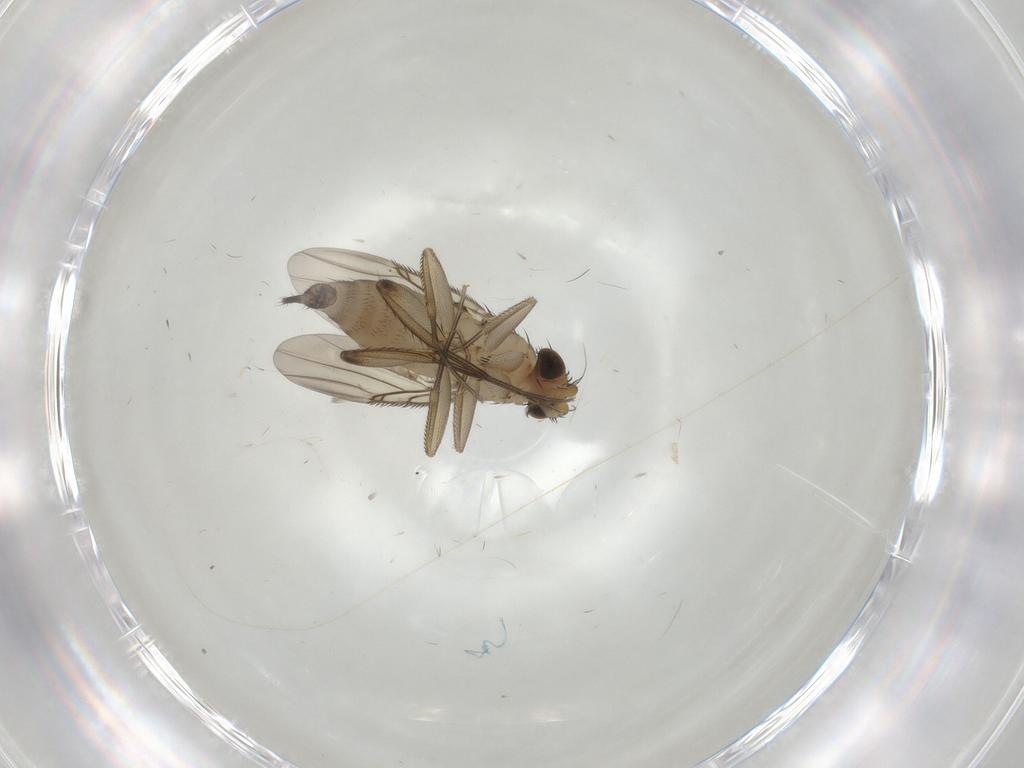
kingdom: Animalia
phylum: Arthropoda
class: Insecta
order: Diptera
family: Phoridae
